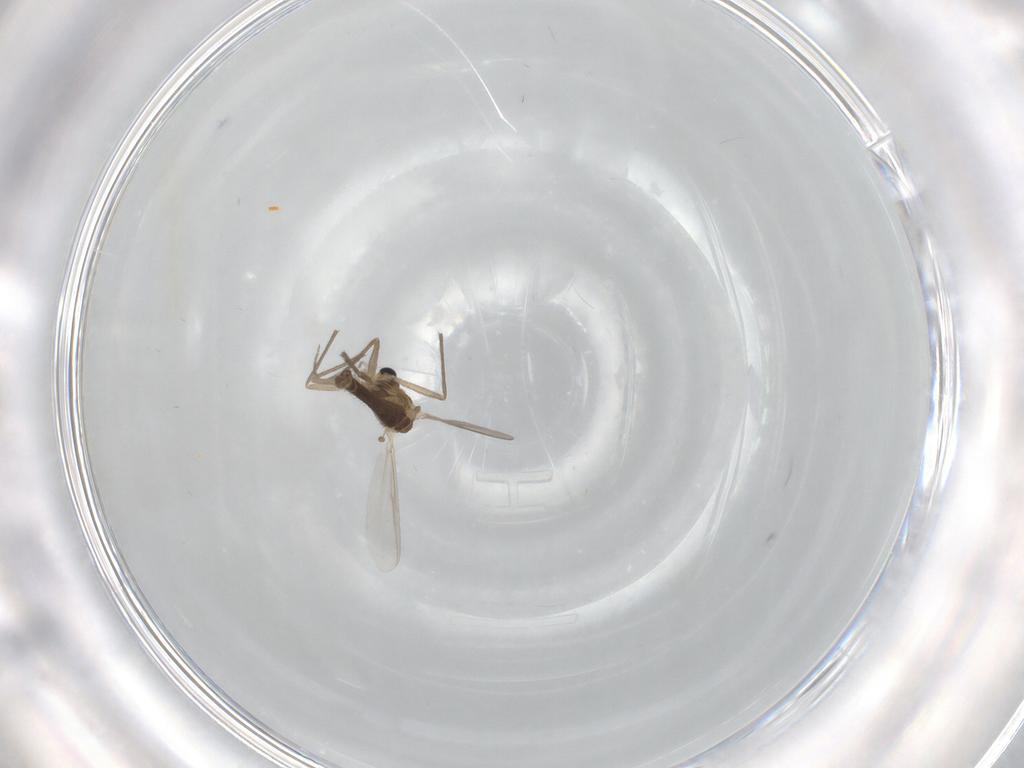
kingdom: Animalia
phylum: Arthropoda
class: Insecta
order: Diptera
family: Chironomidae
